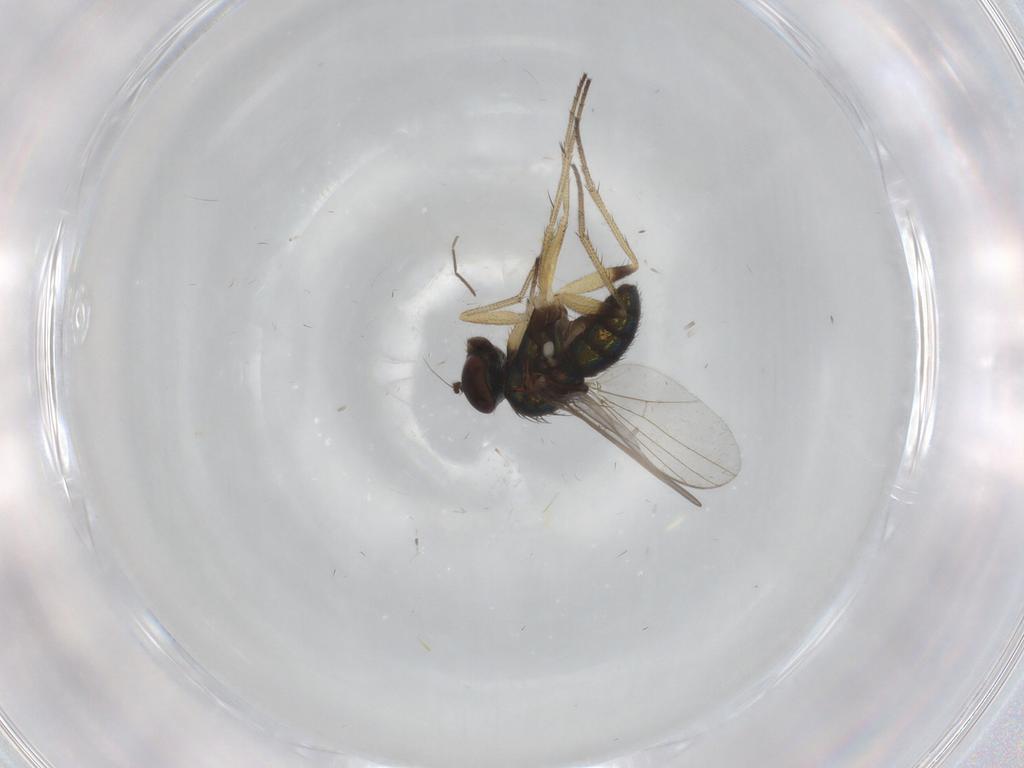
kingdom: Animalia
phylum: Arthropoda
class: Insecta
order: Diptera
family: Chironomidae
